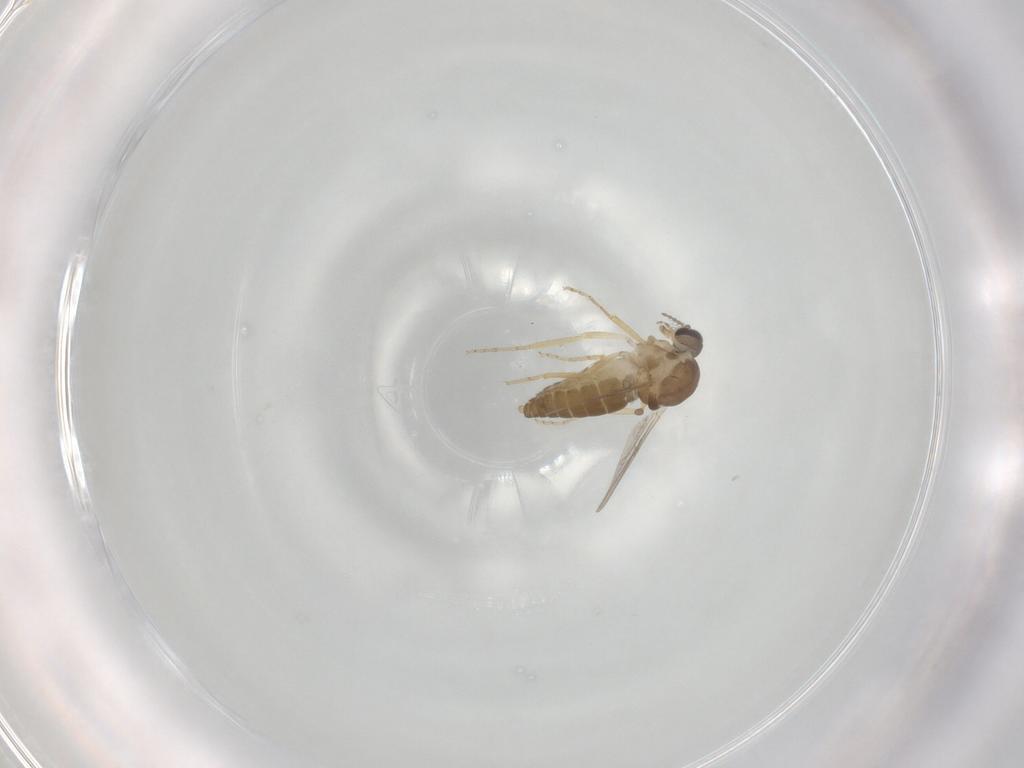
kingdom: Animalia
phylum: Arthropoda
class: Insecta
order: Diptera
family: Ceratopogonidae
